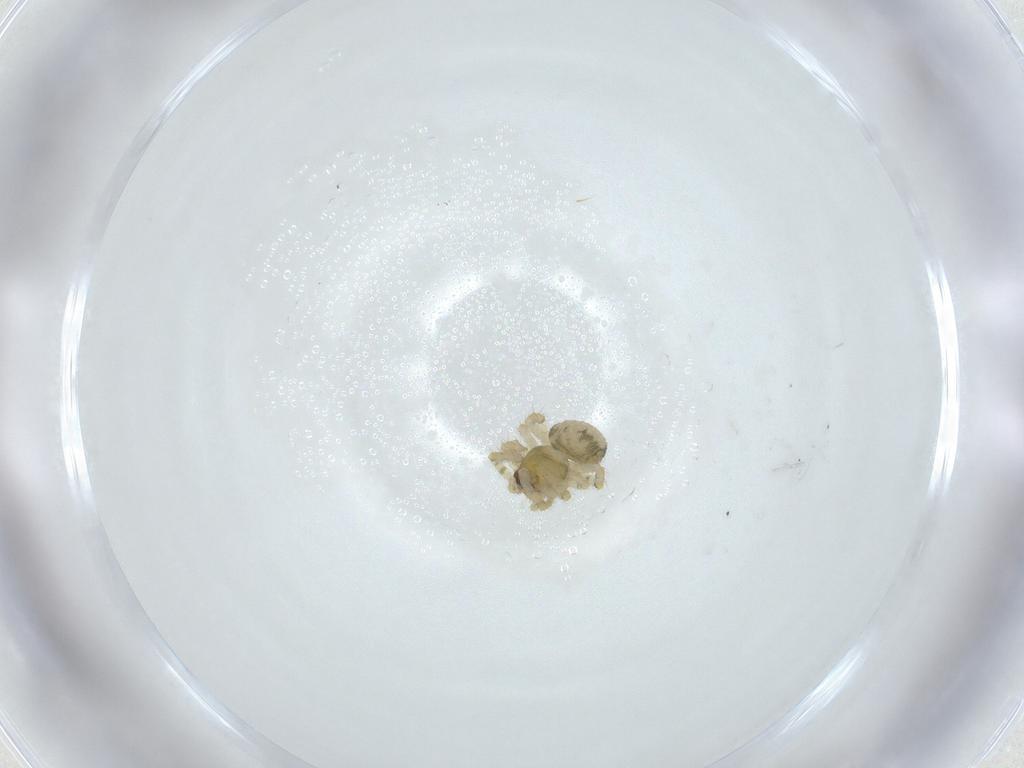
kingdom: Animalia
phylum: Arthropoda
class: Arachnida
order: Araneae
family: Theridiidae
